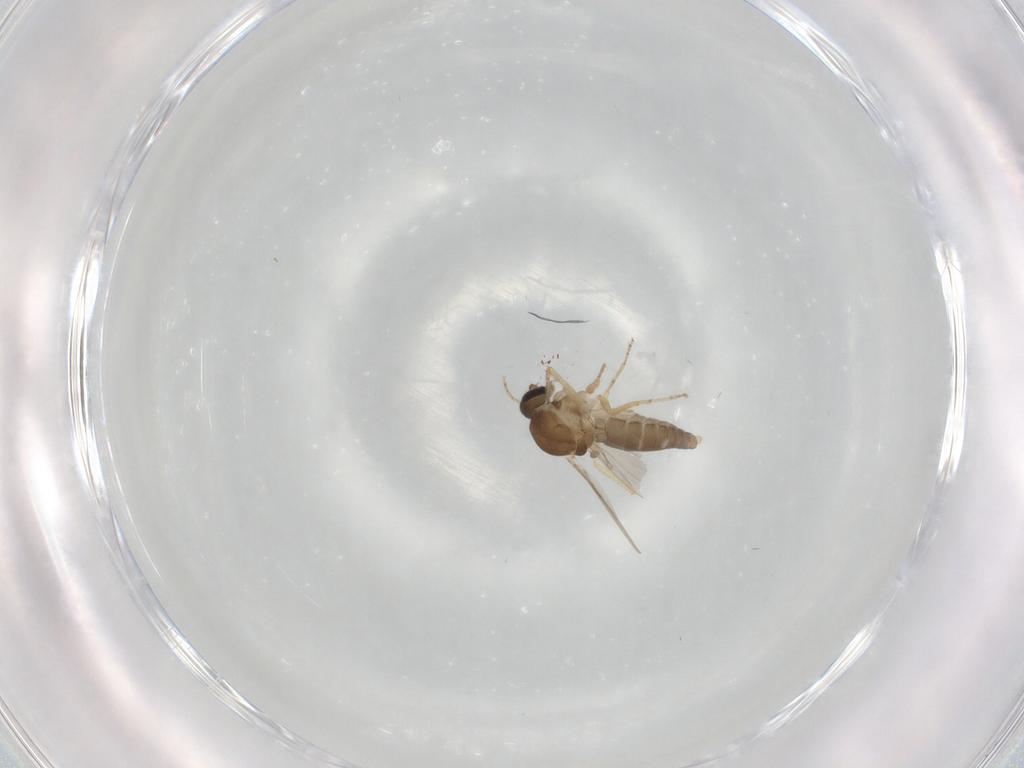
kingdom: Animalia
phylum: Arthropoda
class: Insecta
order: Diptera
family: Ceratopogonidae
